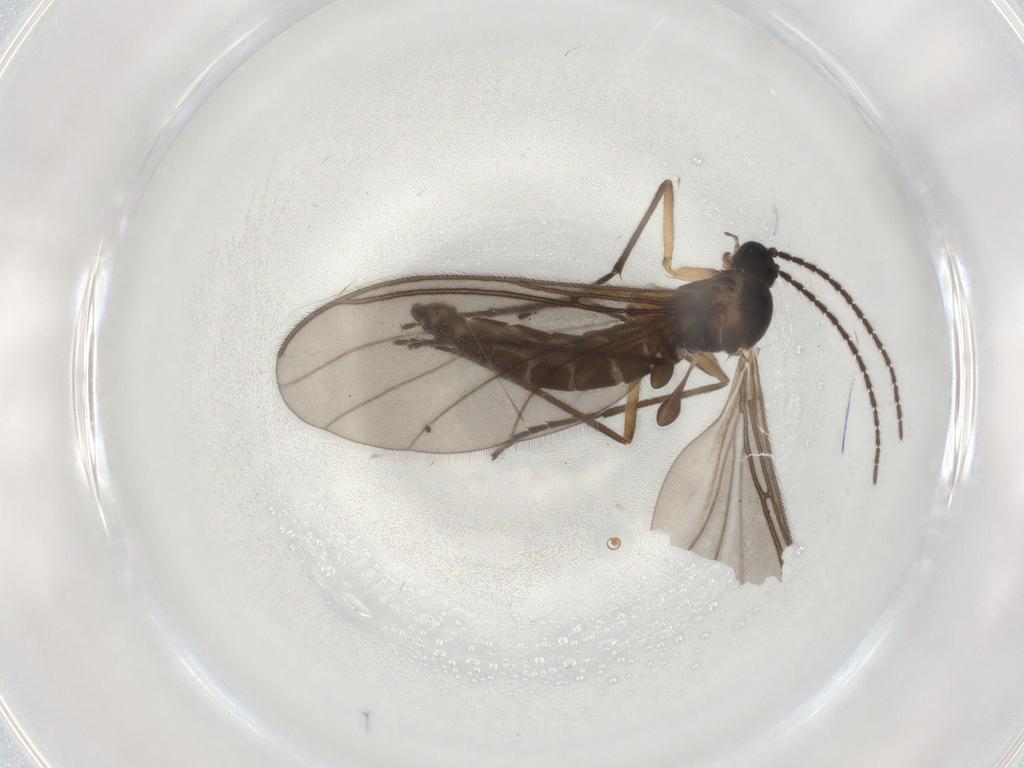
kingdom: Animalia
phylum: Arthropoda
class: Insecta
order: Diptera
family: Sciaridae
